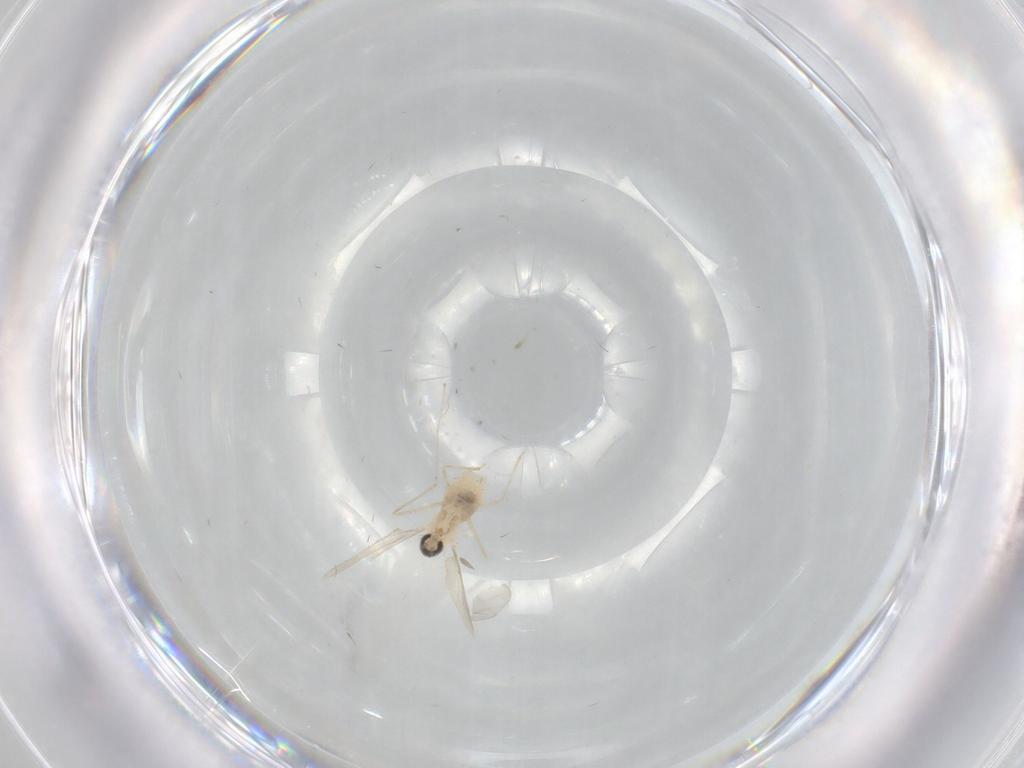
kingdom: Animalia
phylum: Arthropoda
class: Insecta
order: Diptera
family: Cecidomyiidae
